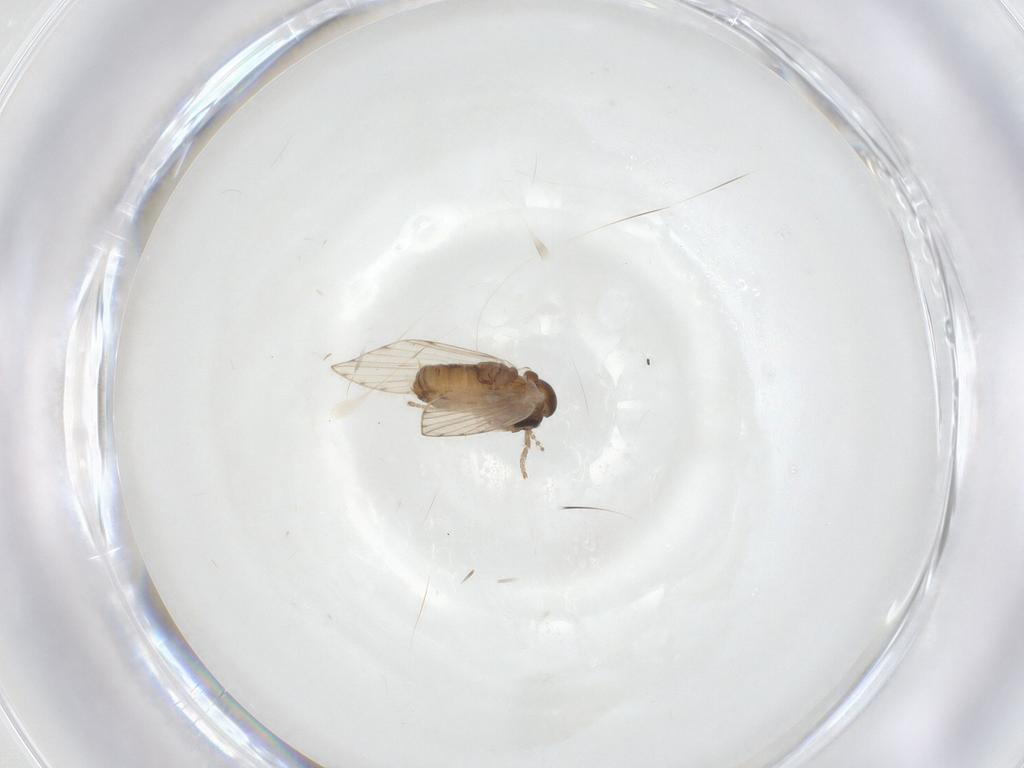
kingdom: Animalia
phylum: Arthropoda
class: Insecta
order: Diptera
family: Psychodidae
